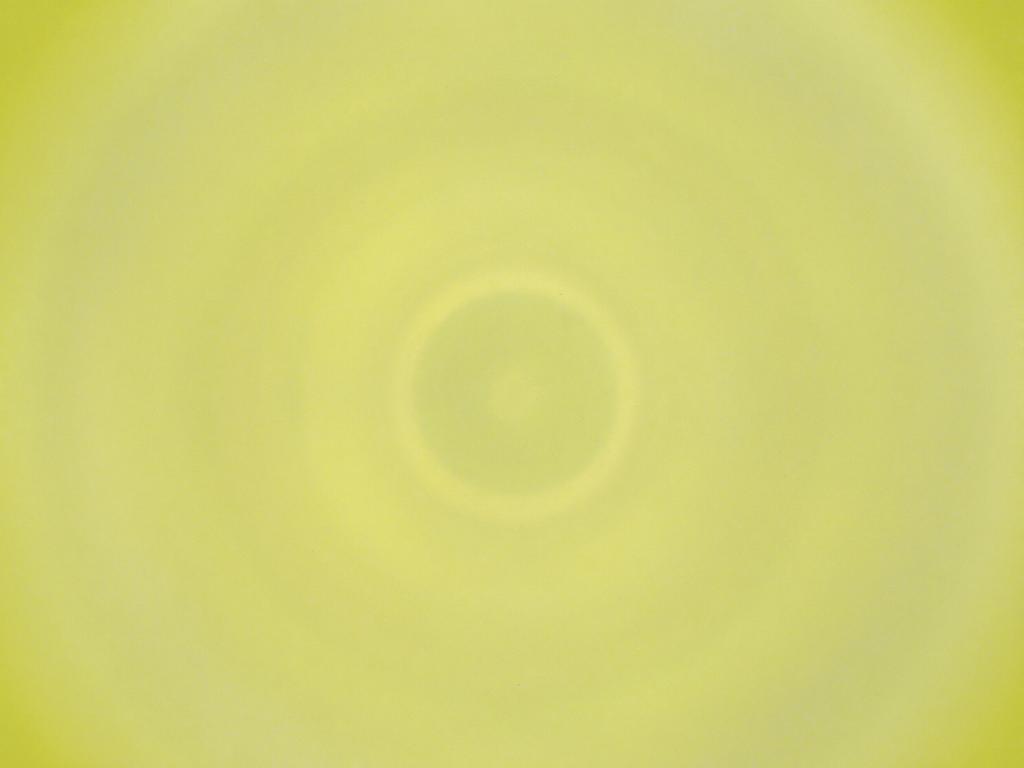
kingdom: Animalia
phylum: Arthropoda
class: Insecta
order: Diptera
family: Cecidomyiidae
